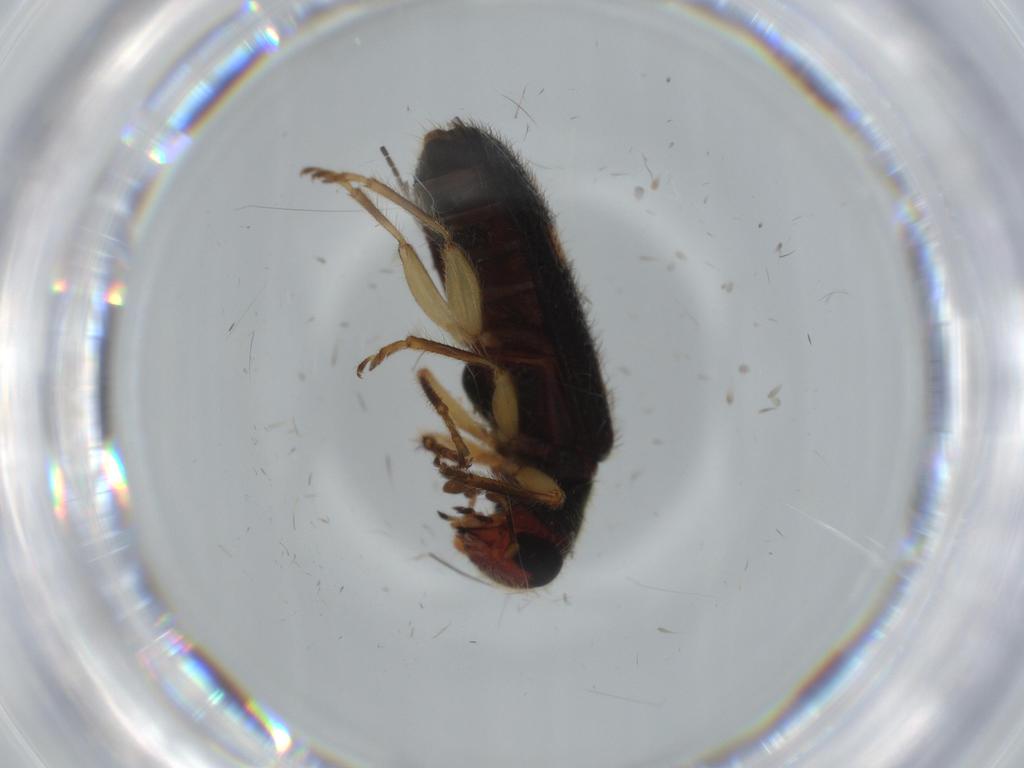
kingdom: Animalia
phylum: Arthropoda
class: Insecta
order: Coleoptera
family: Cleridae
